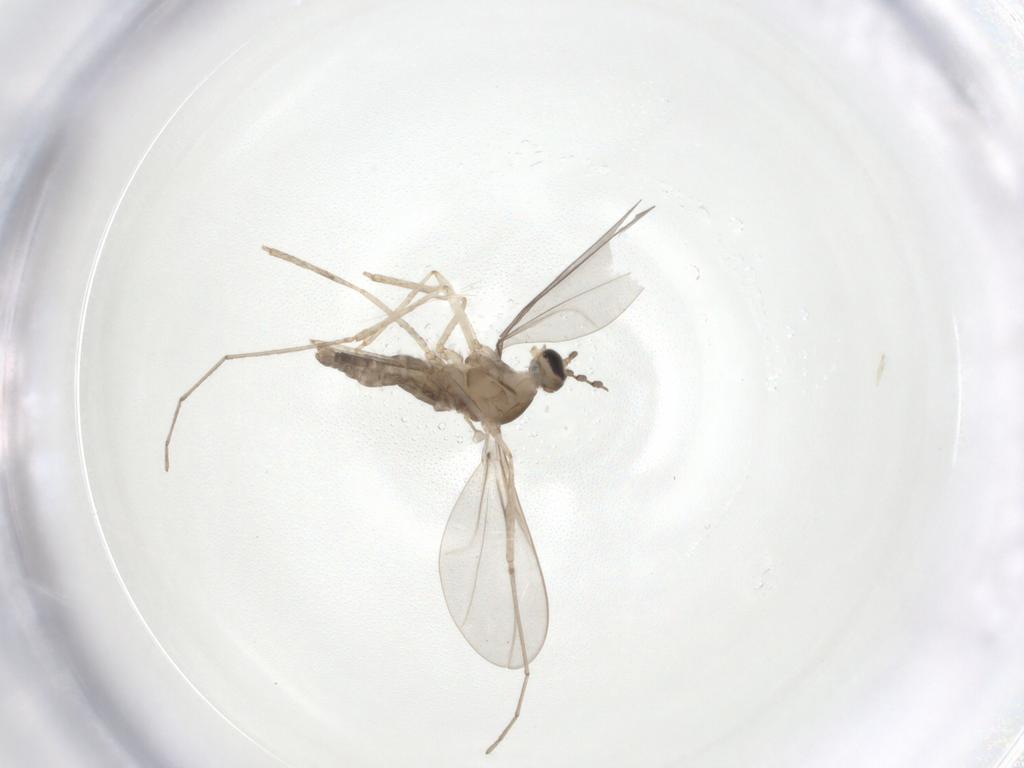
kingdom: Animalia
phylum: Arthropoda
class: Insecta
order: Diptera
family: Cecidomyiidae
